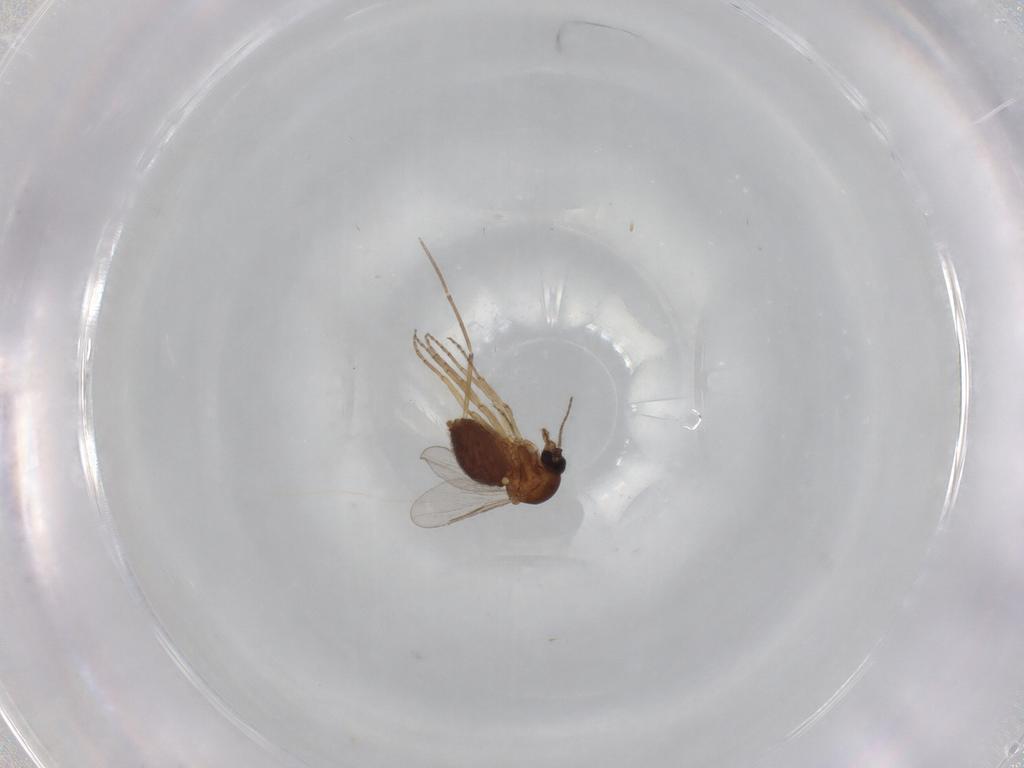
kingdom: Animalia
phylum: Arthropoda
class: Insecta
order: Diptera
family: Ceratopogonidae
